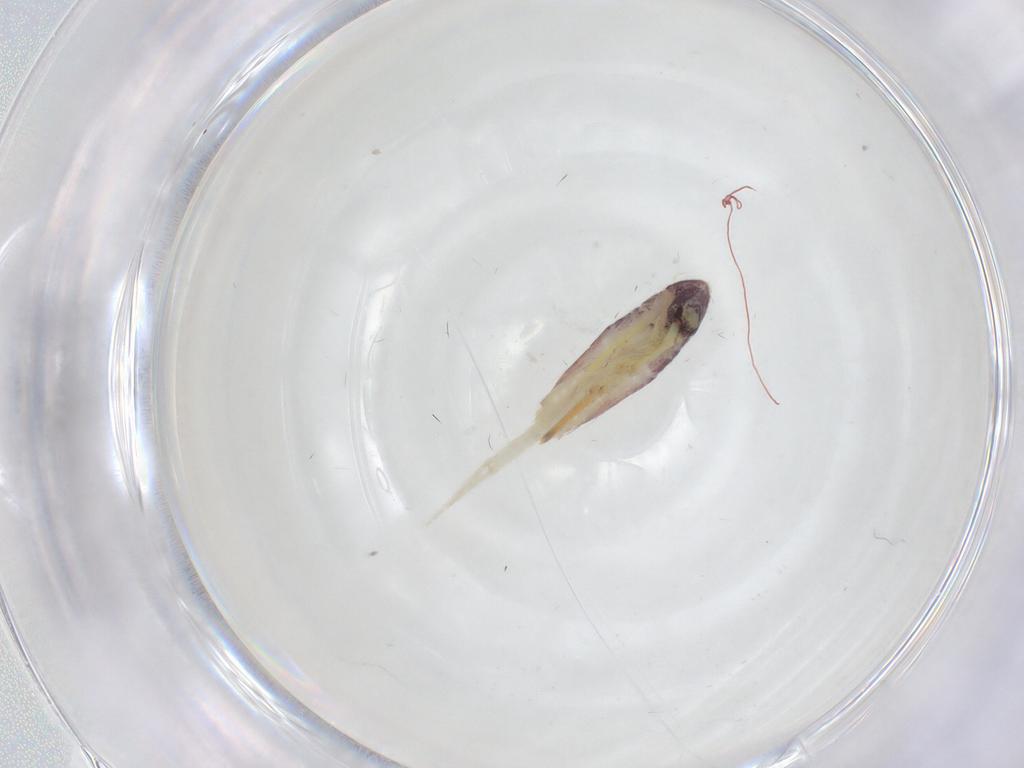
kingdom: Animalia
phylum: Arthropoda
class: Collembola
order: Entomobryomorpha
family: Entomobryidae
